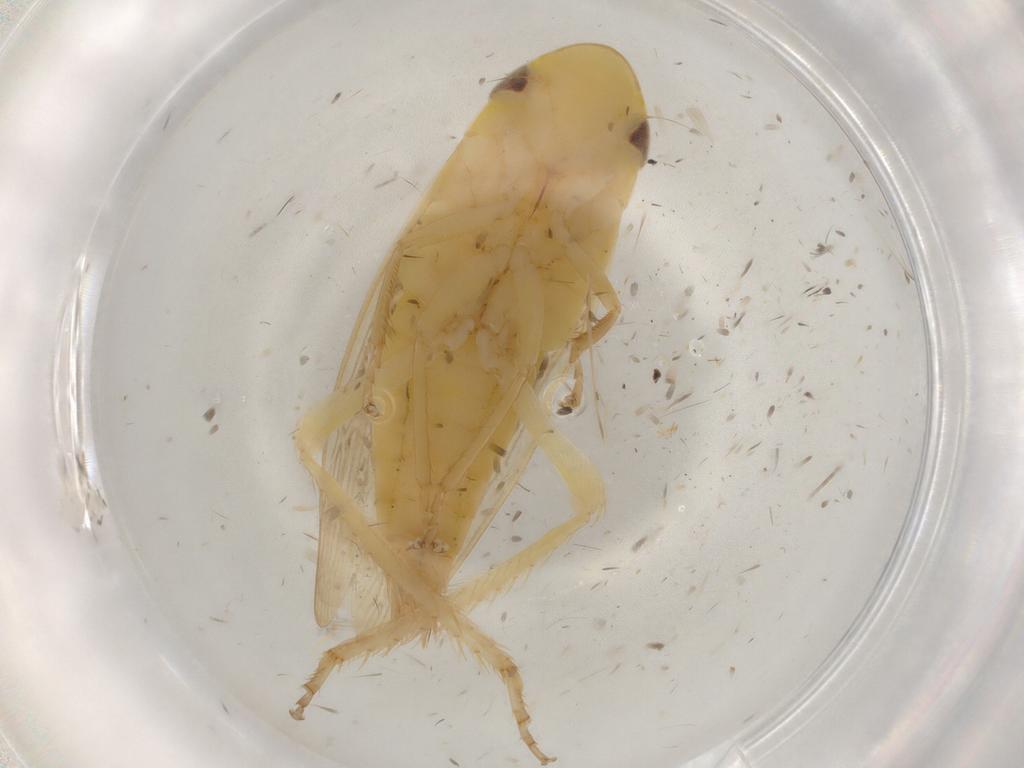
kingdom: Animalia
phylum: Arthropoda
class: Insecta
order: Hemiptera
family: Cicadellidae
